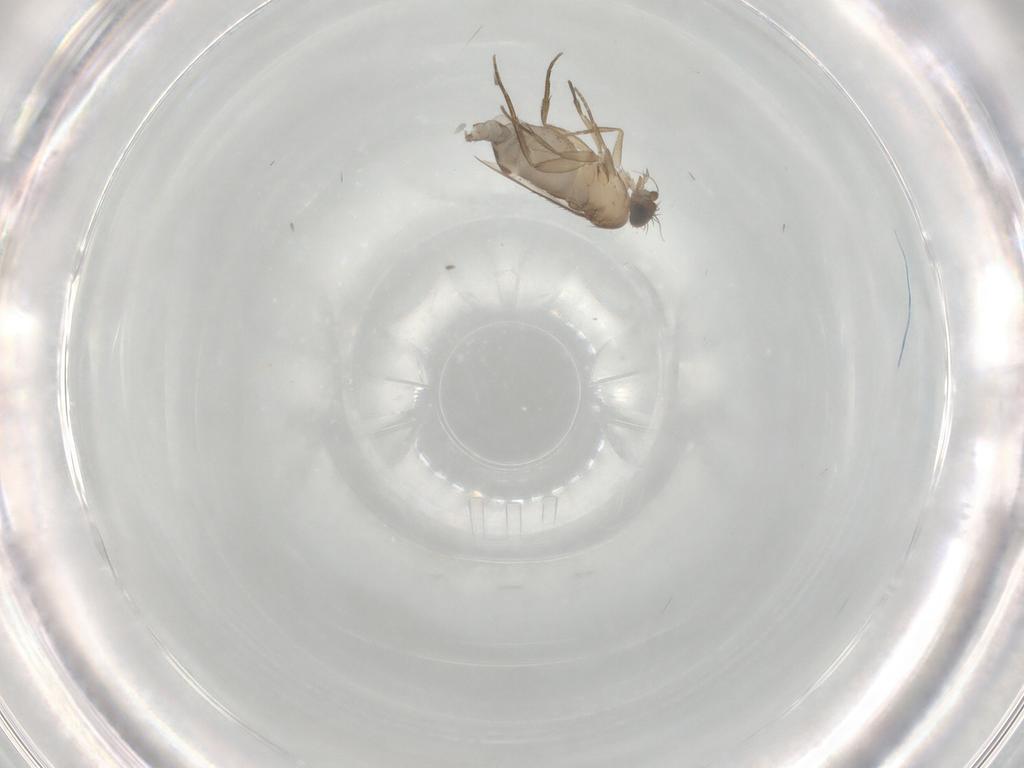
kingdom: Animalia
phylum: Arthropoda
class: Insecta
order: Diptera
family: Phoridae
